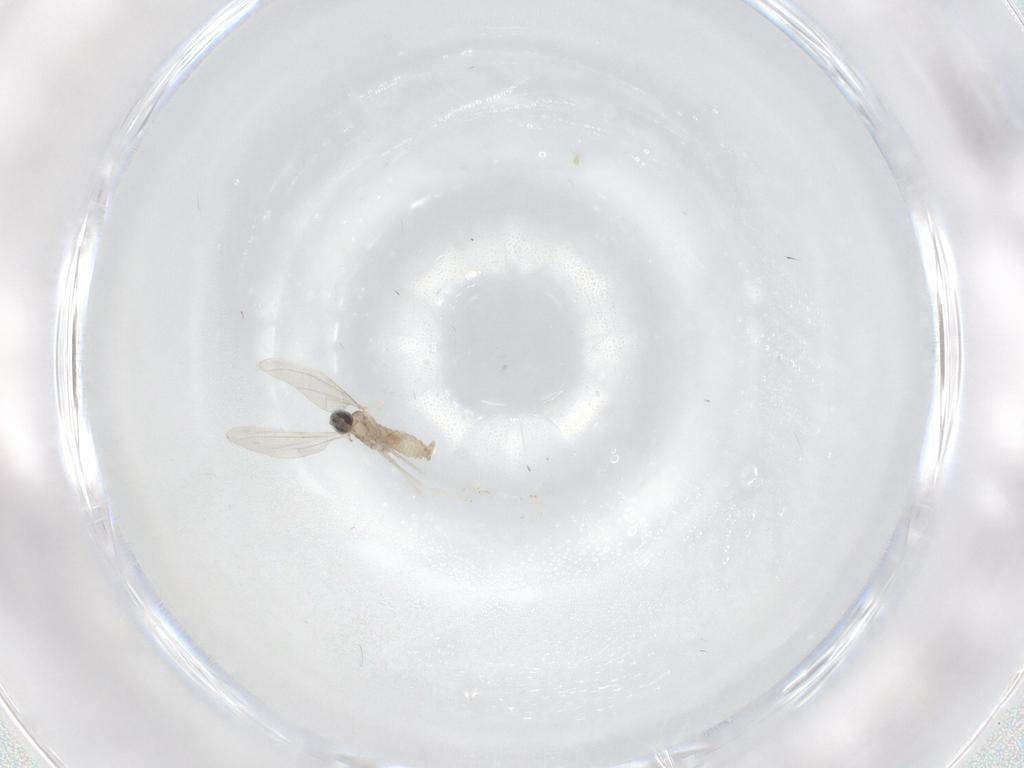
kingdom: Animalia
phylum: Arthropoda
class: Insecta
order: Diptera
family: Cecidomyiidae
